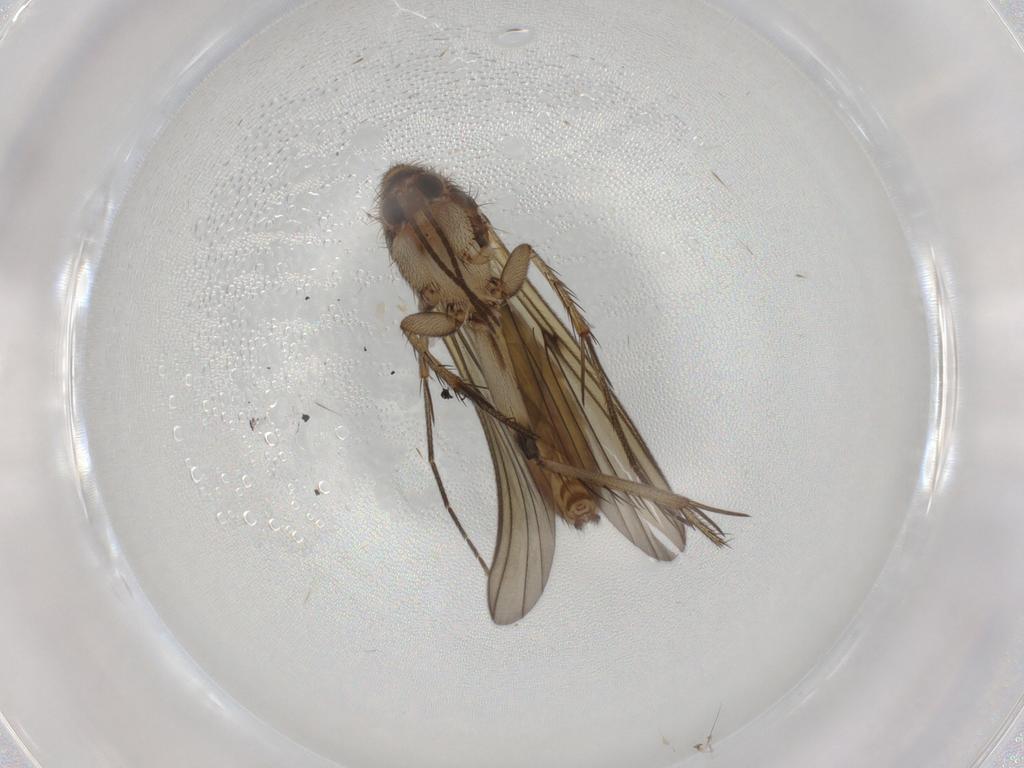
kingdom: Animalia
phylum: Arthropoda
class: Insecta
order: Diptera
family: Mycetophilidae
